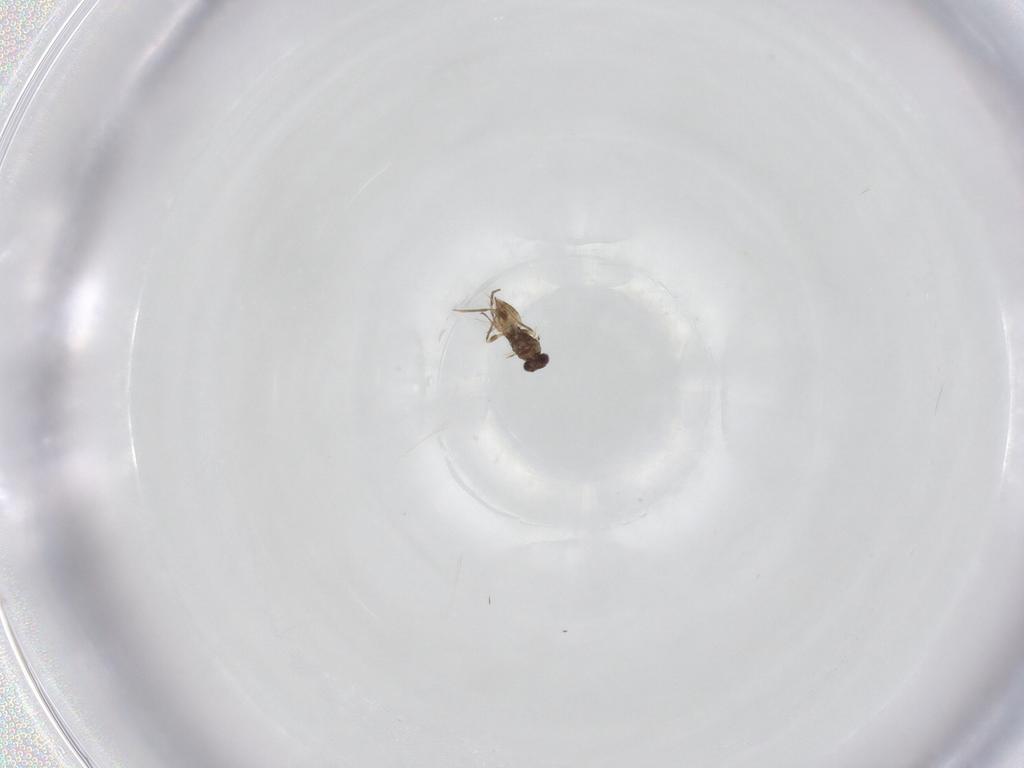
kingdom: Animalia
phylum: Arthropoda
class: Insecta
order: Hymenoptera
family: Mymaridae
